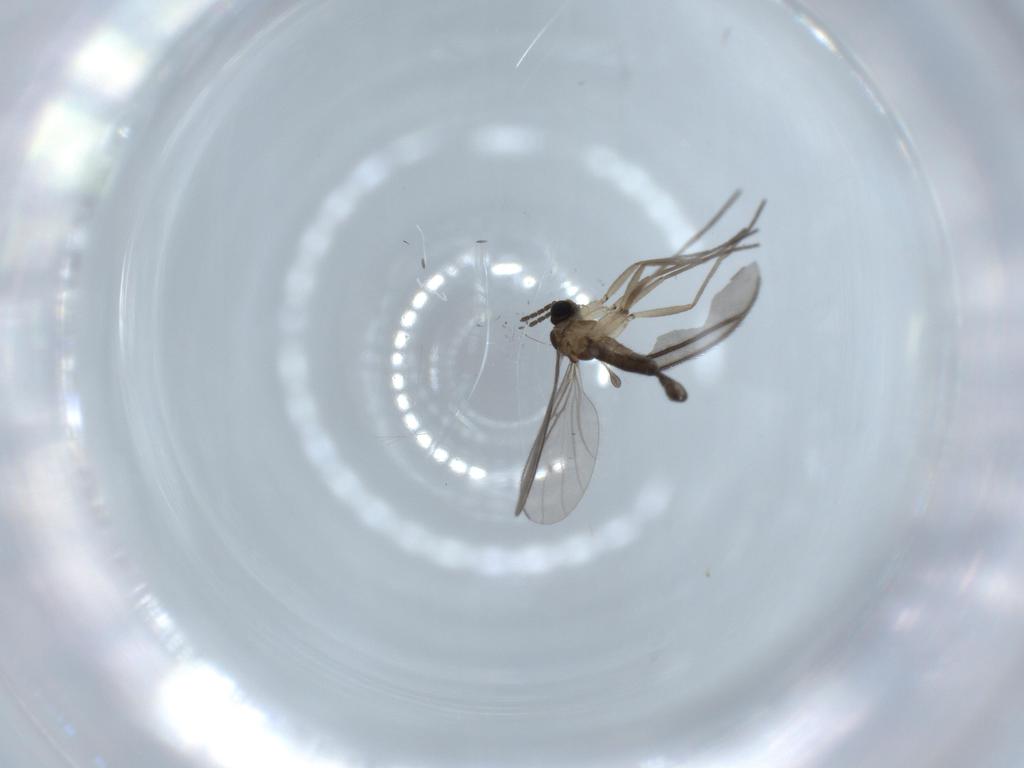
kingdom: Animalia
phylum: Arthropoda
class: Insecta
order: Diptera
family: Sciaridae
